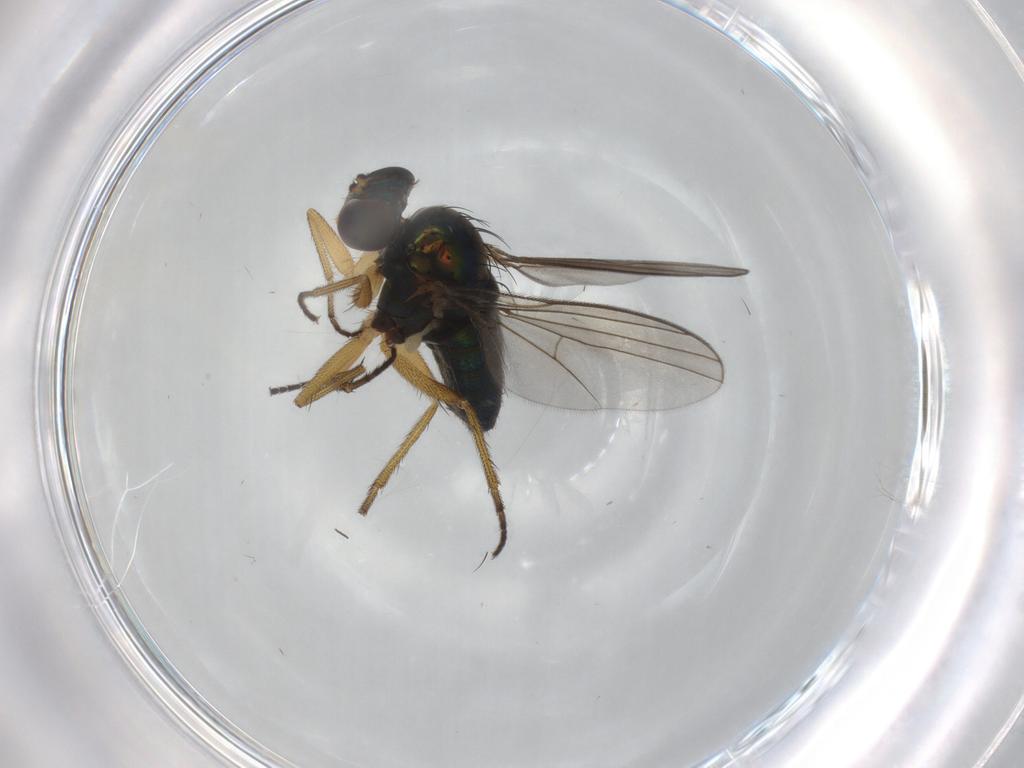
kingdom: Animalia
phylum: Arthropoda
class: Insecta
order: Diptera
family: Dolichopodidae
